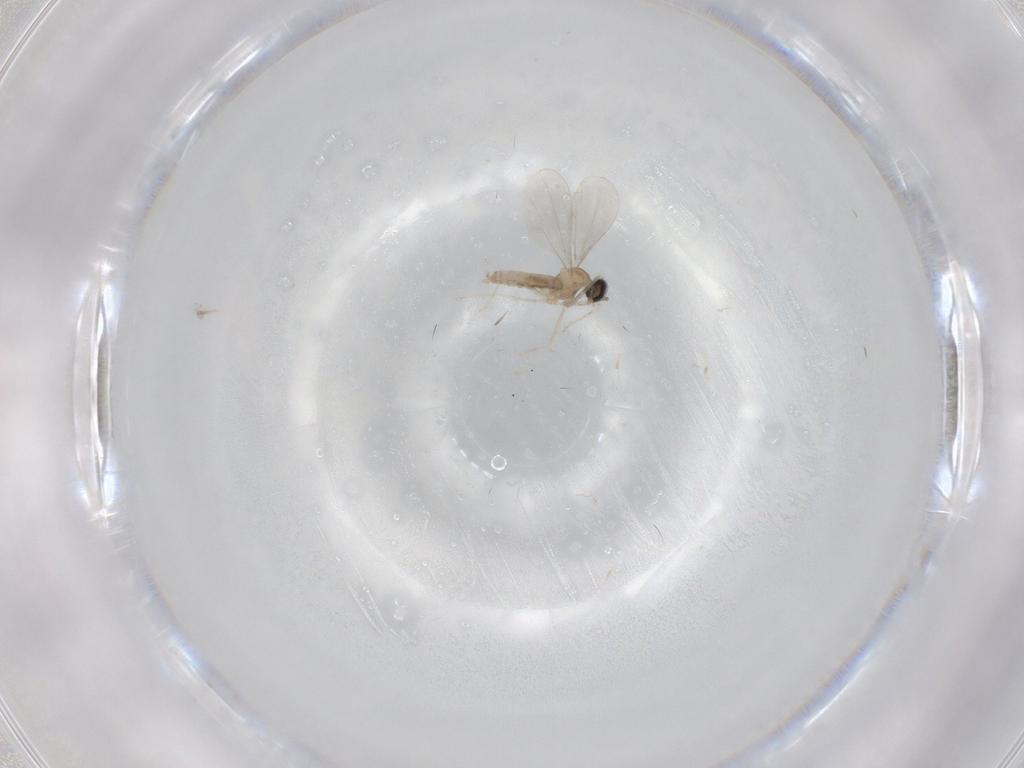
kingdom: Animalia
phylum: Arthropoda
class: Insecta
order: Diptera
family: Cecidomyiidae
